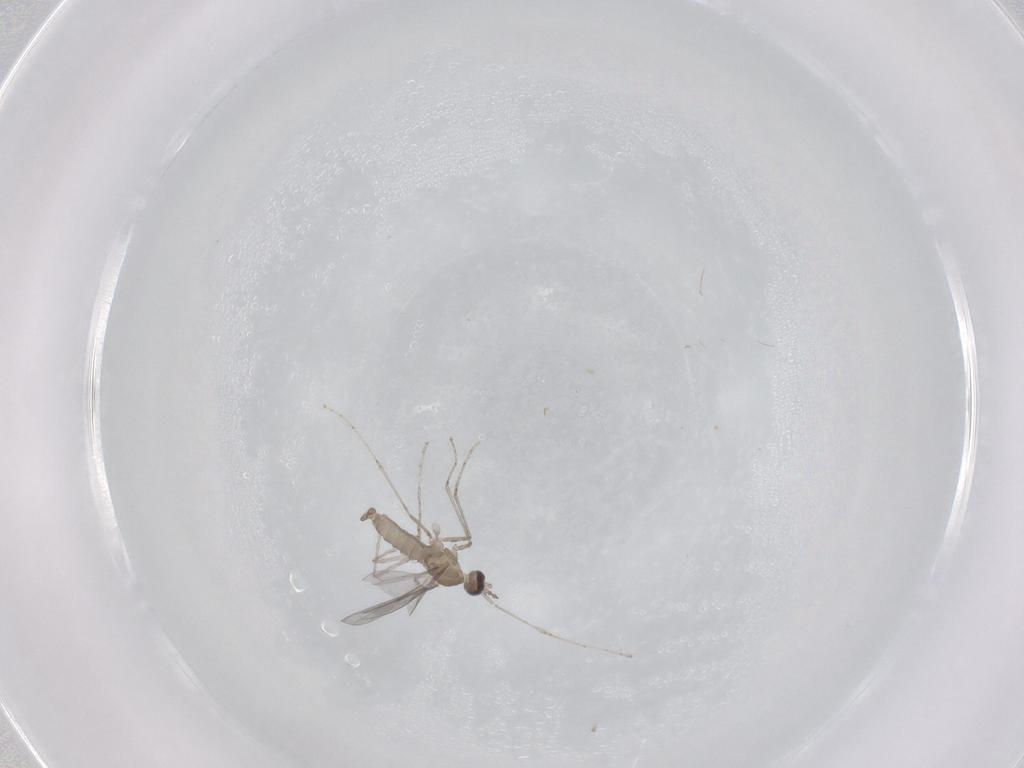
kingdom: Animalia
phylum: Arthropoda
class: Insecta
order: Diptera
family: Cecidomyiidae
